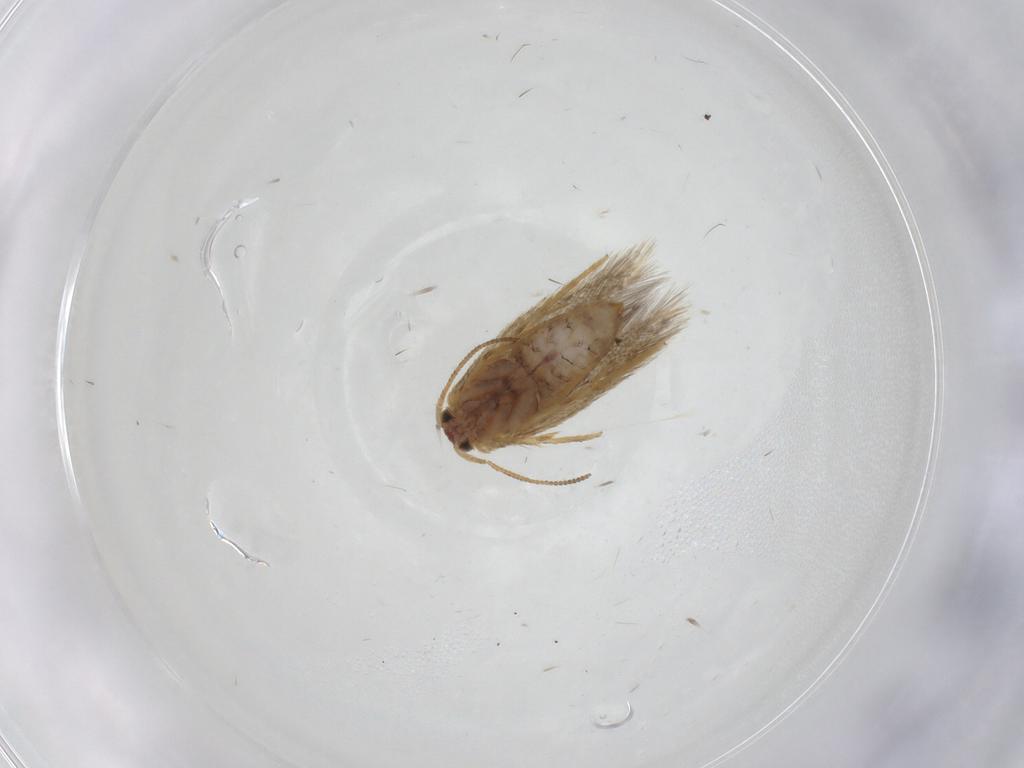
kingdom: Animalia
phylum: Arthropoda
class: Insecta
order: Lepidoptera
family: Nepticulidae
